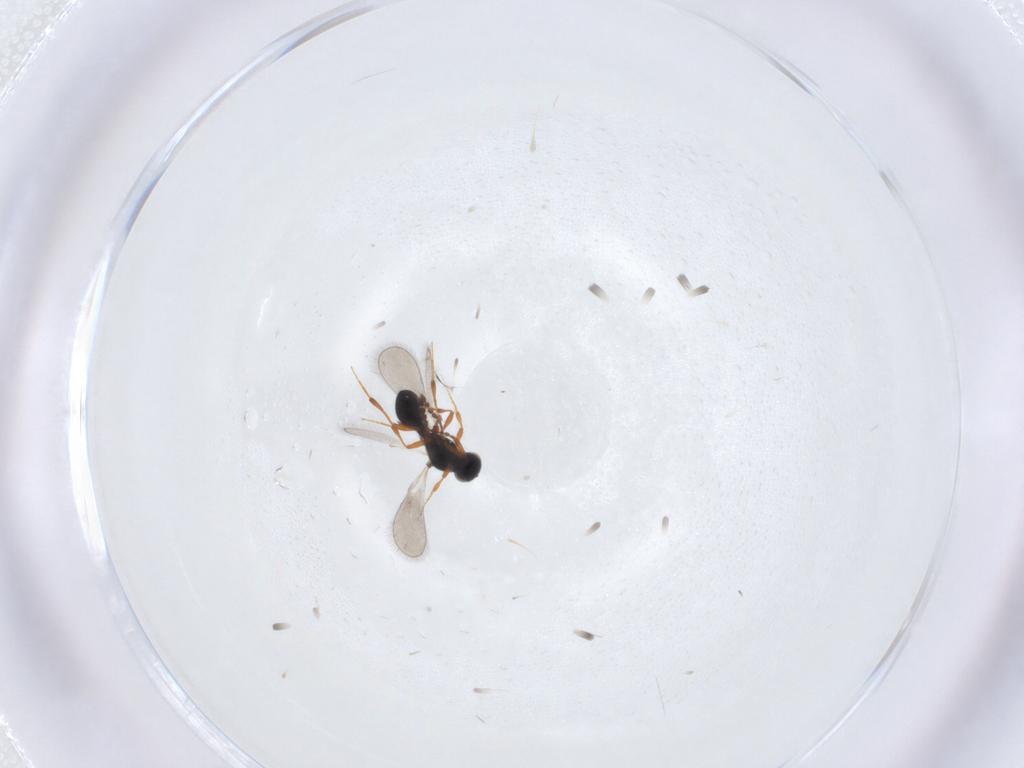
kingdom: Animalia
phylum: Arthropoda
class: Insecta
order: Hymenoptera
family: Platygastridae
